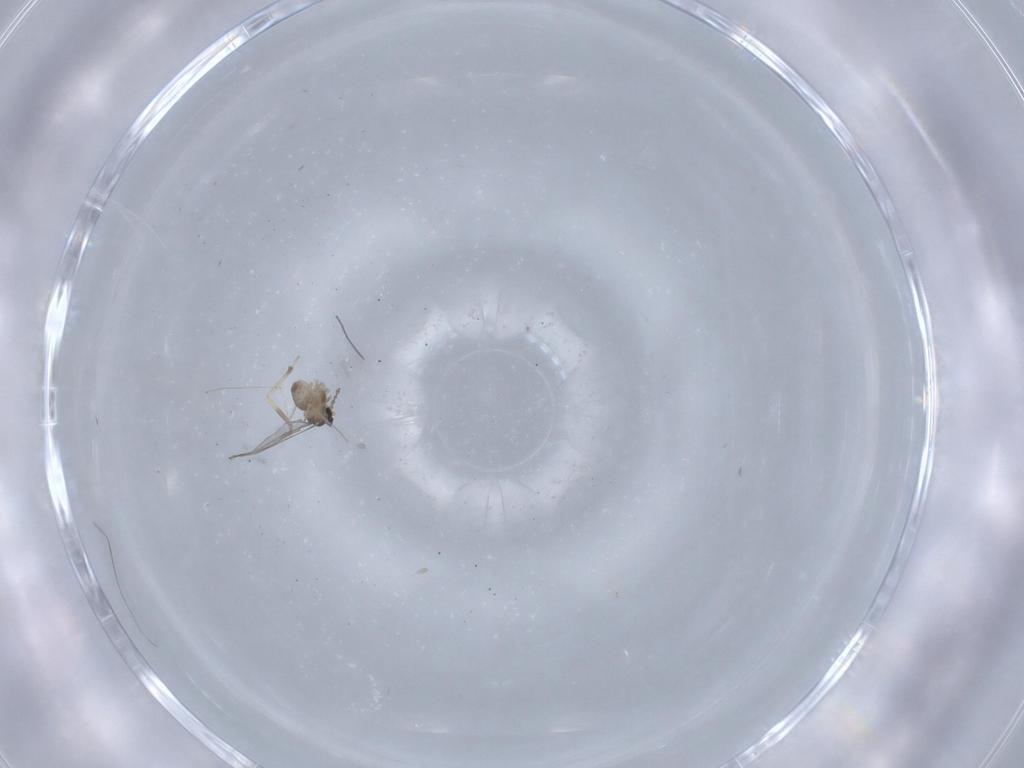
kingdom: Animalia
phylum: Arthropoda
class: Insecta
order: Diptera
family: Cecidomyiidae
